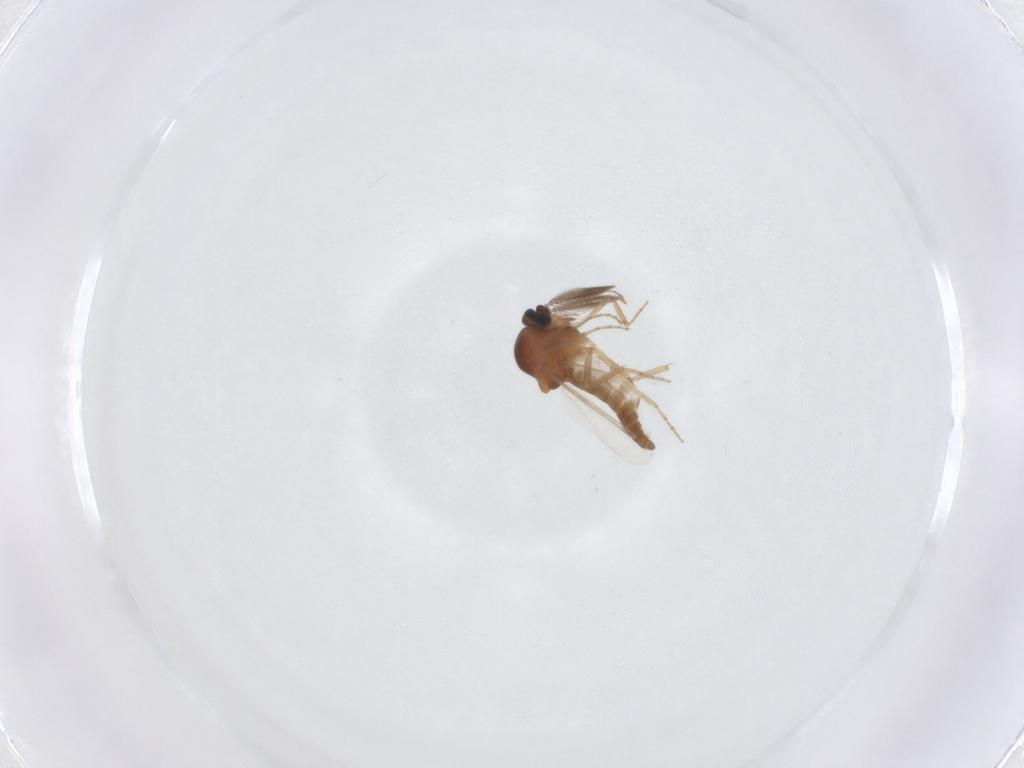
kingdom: Animalia
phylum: Arthropoda
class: Insecta
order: Diptera
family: Ceratopogonidae
